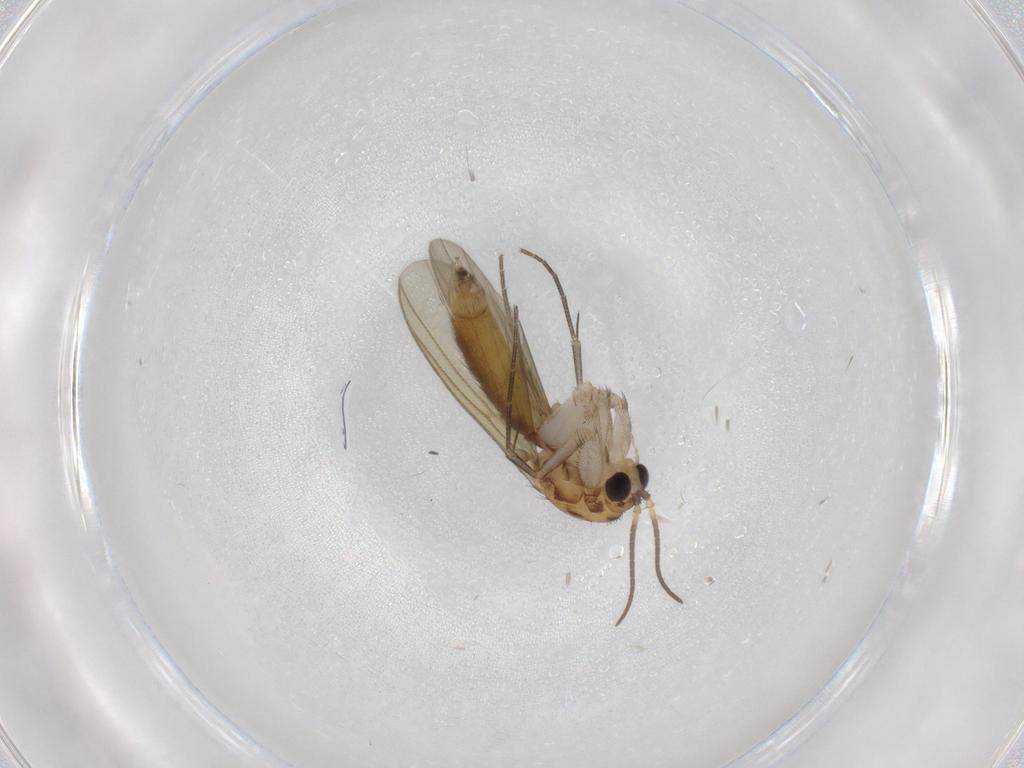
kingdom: Animalia
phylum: Arthropoda
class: Insecta
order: Diptera
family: Mycetophilidae
